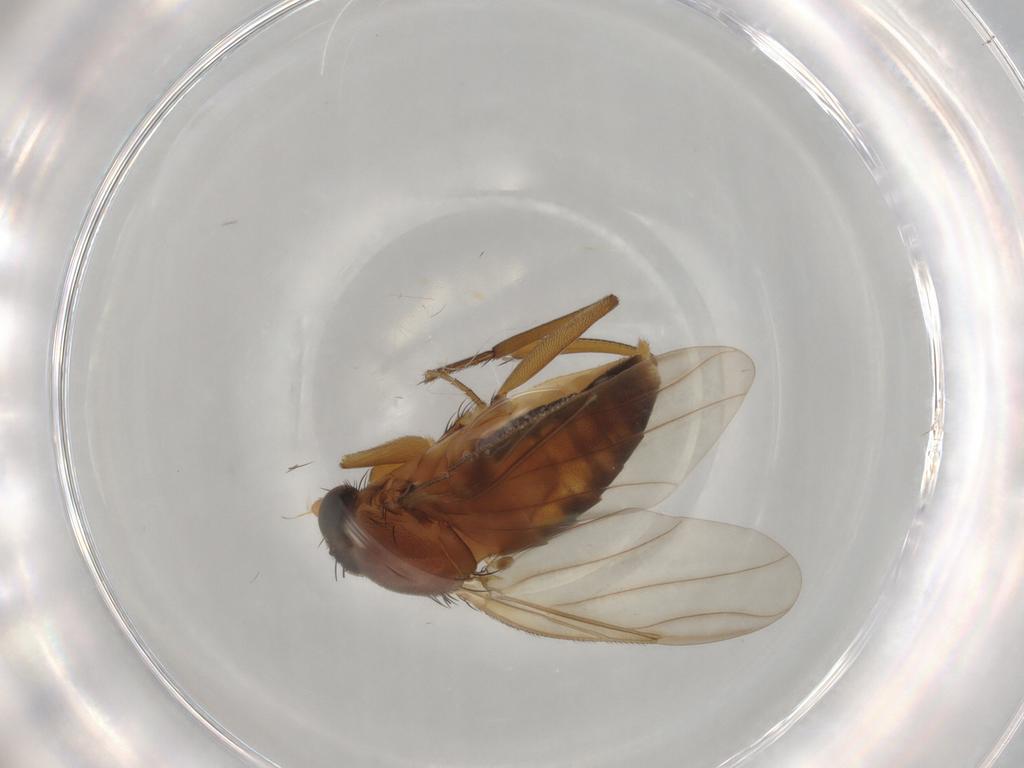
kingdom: Animalia
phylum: Arthropoda
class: Insecta
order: Diptera
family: Phoridae
